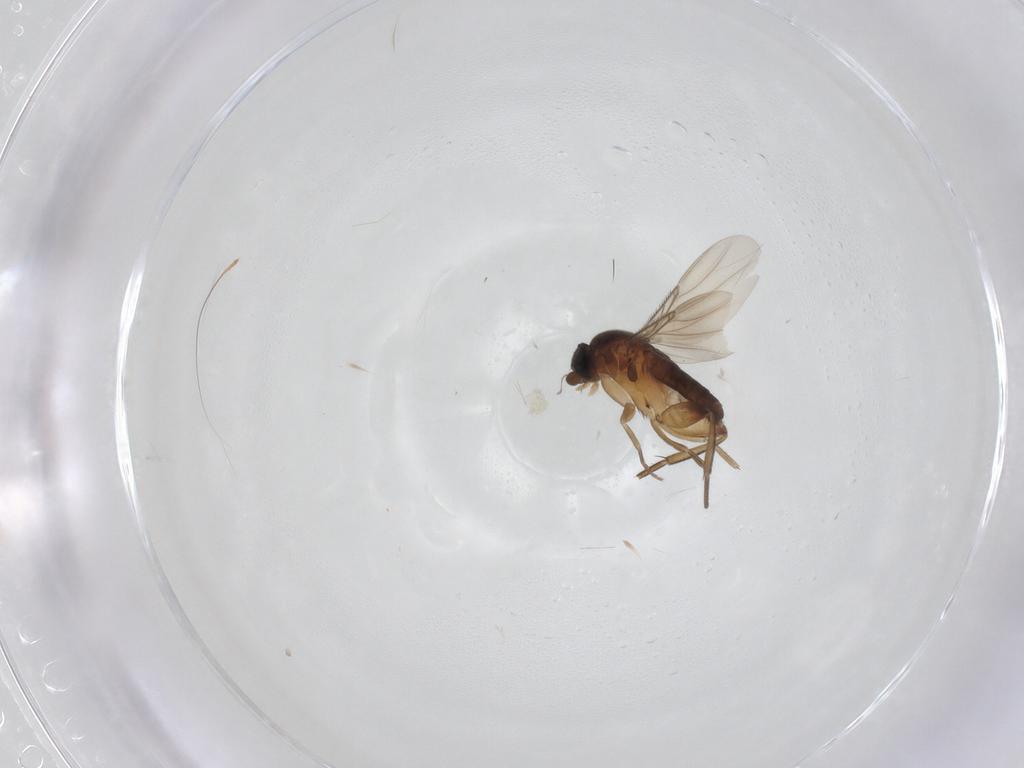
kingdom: Animalia
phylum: Arthropoda
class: Insecta
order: Diptera
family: Phoridae
